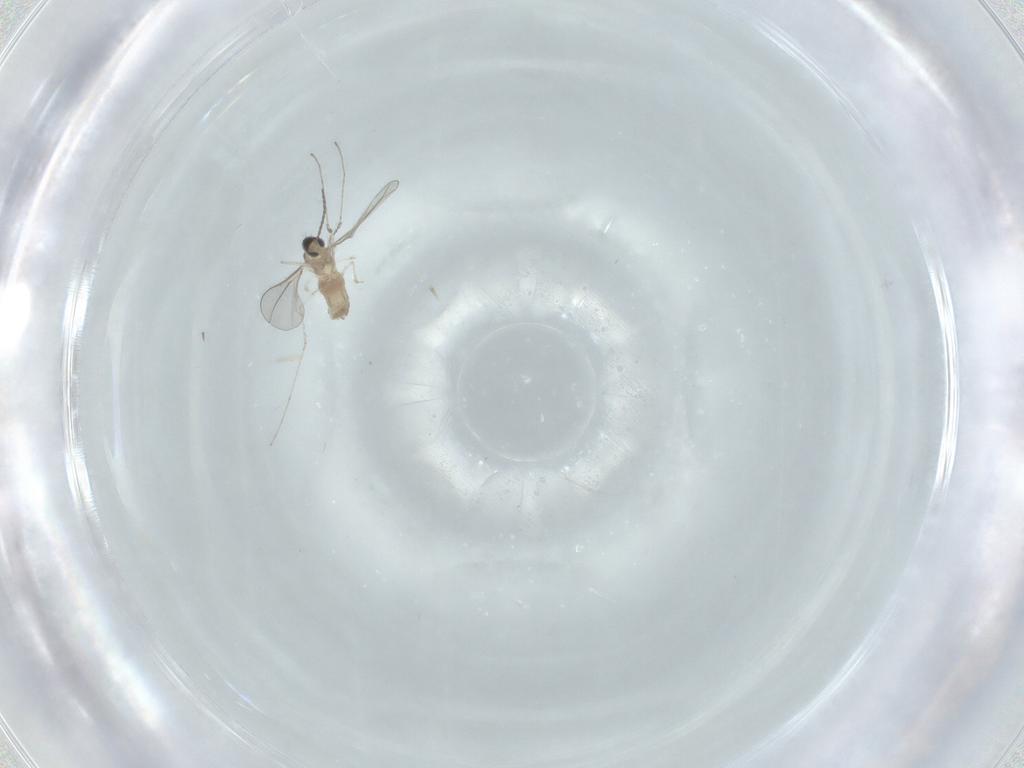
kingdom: Animalia
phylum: Arthropoda
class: Insecta
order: Diptera
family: Cecidomyiidae
